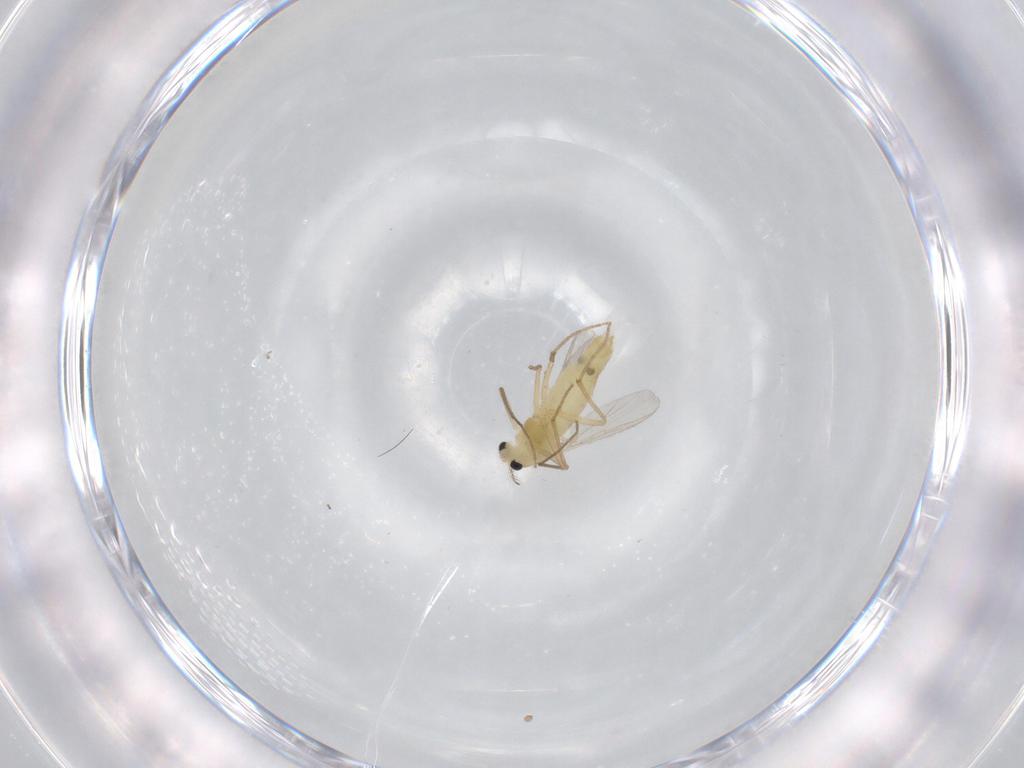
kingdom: Animalia
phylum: Arthropoda
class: Insecta
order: Diptera
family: Chironomidae
